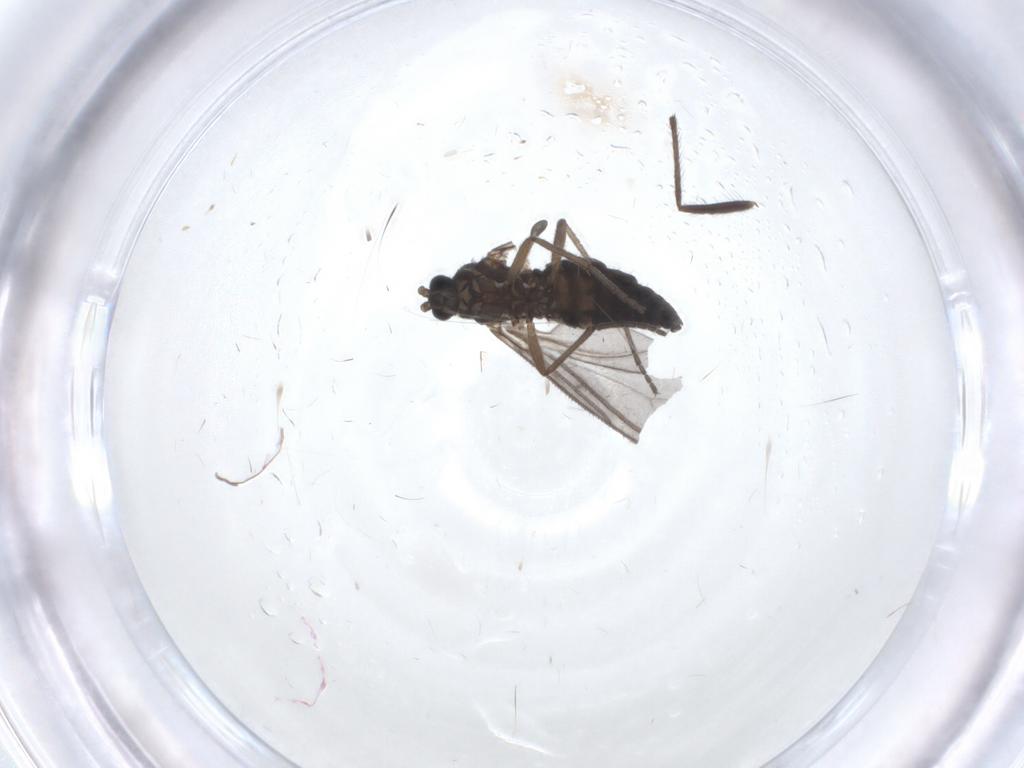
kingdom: Animalia
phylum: Arthropoda
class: Insecta
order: Diptera
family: Sciaridae
